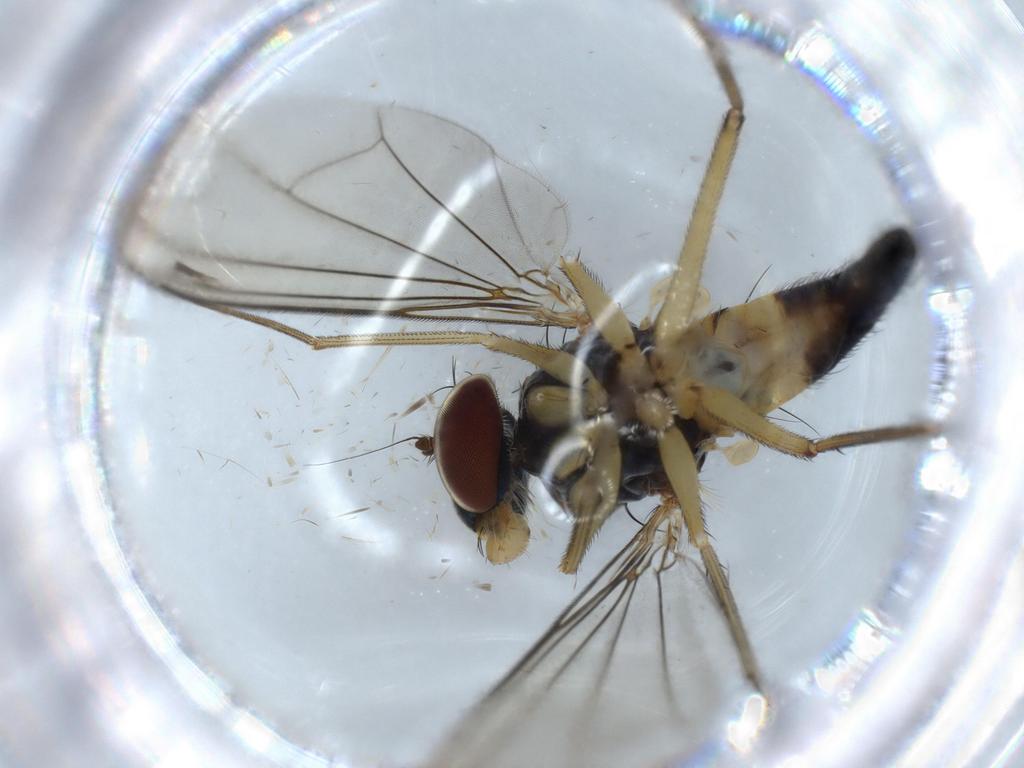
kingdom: Animalia
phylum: Arthropoda
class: Insecta
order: Diptera
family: Dolichopodidae
